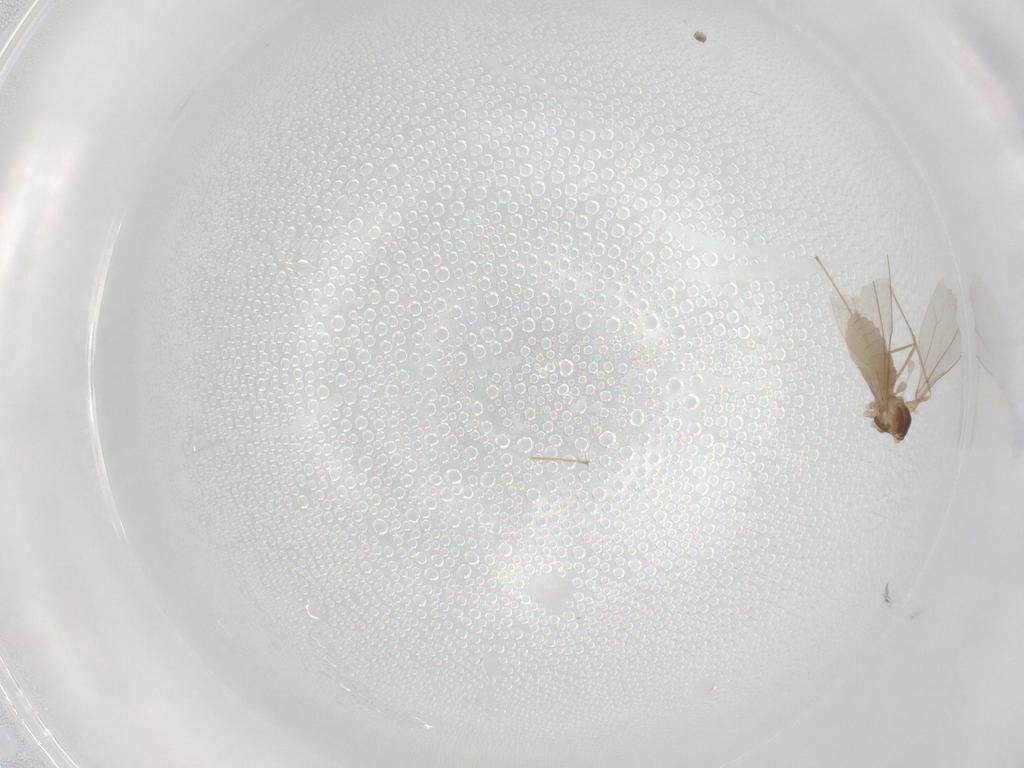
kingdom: Animalia
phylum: Arthropoda
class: Insecta
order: Diptera
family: Cecidomyiidae
